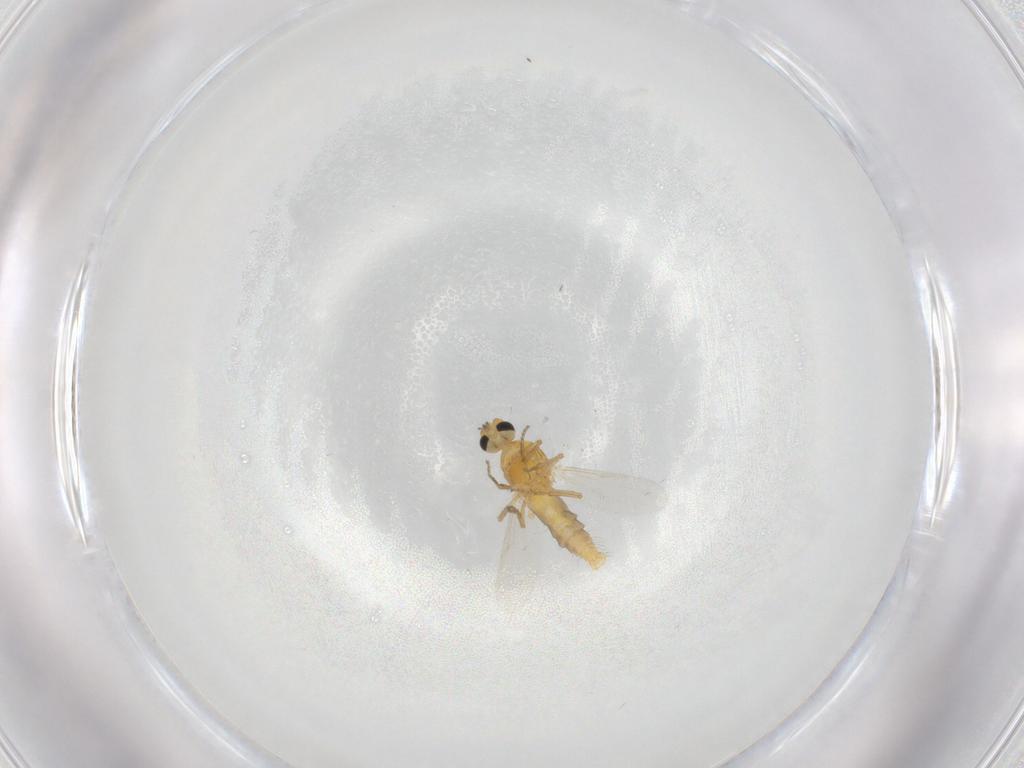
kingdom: Animalia
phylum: Arthropoda
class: Insecta
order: Diptera
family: Ceratopogonidae
